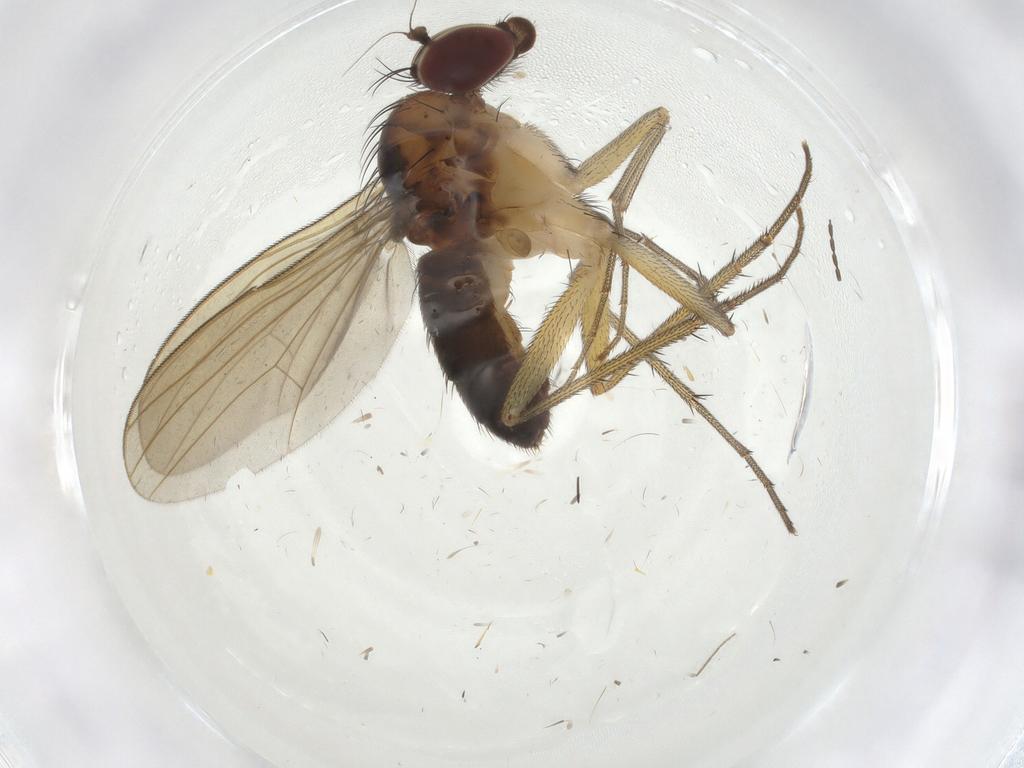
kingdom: Animalia
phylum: Arthropoda
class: Insecta
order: Diptera
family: Dolichopodidae
